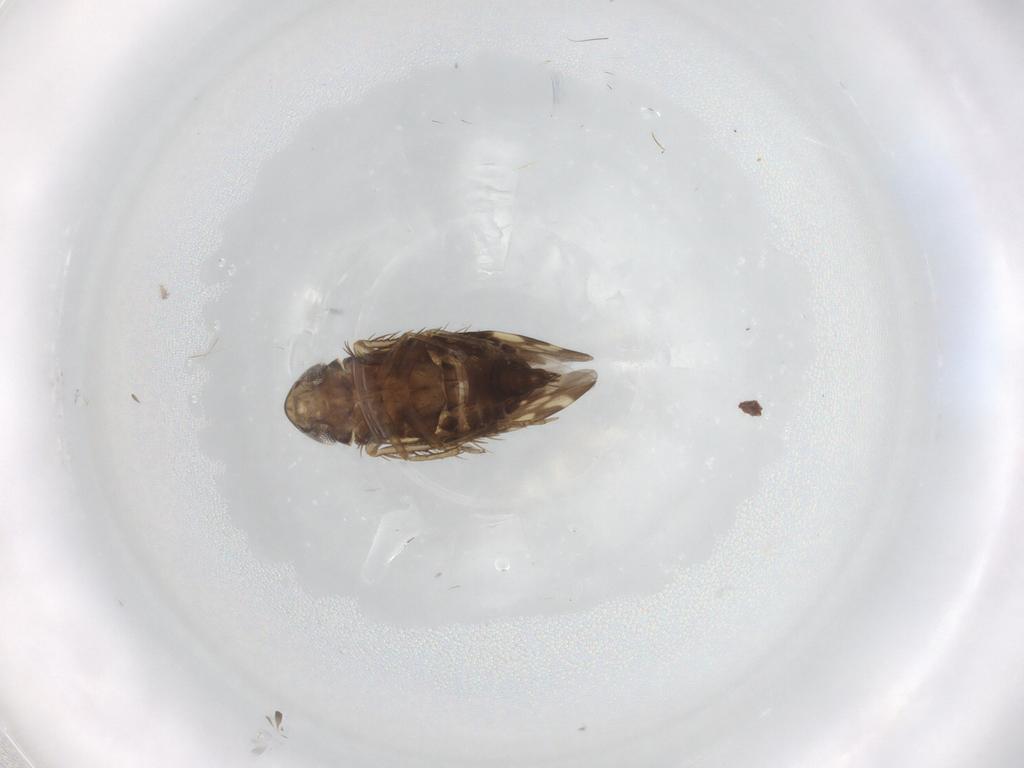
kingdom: Animalia
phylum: Arthropoda
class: Insecta
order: Hemiptera
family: Cicadellidae
